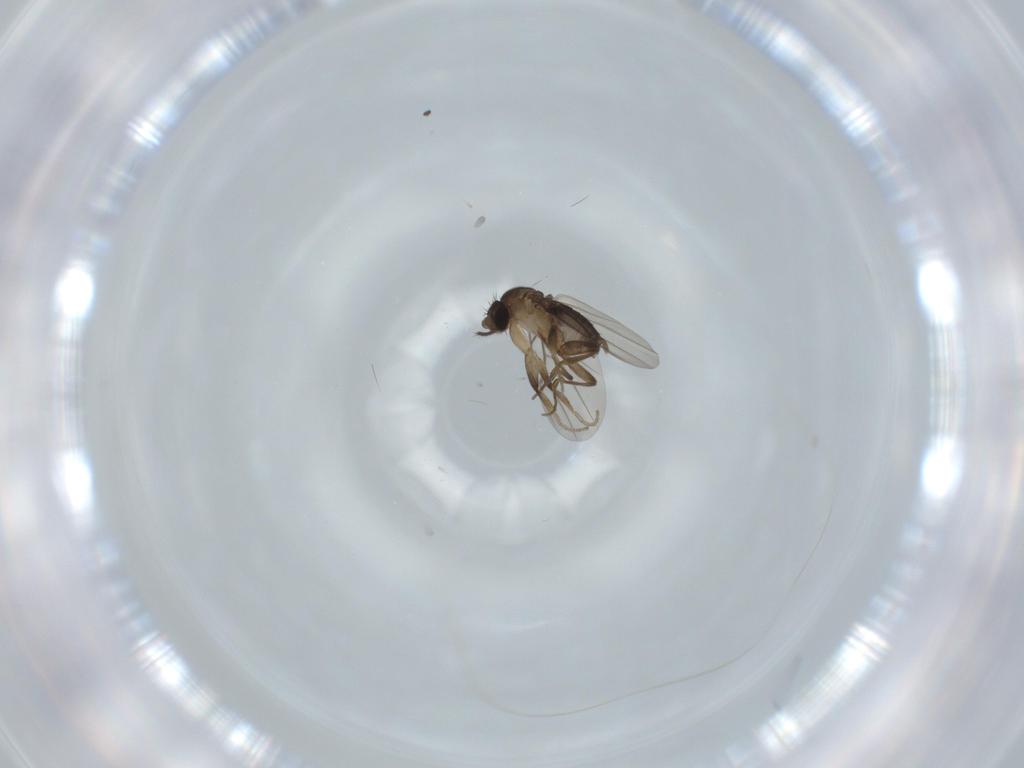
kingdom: Animalia
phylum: Arthropoda
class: Insecta
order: Diptera
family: Phoridae
